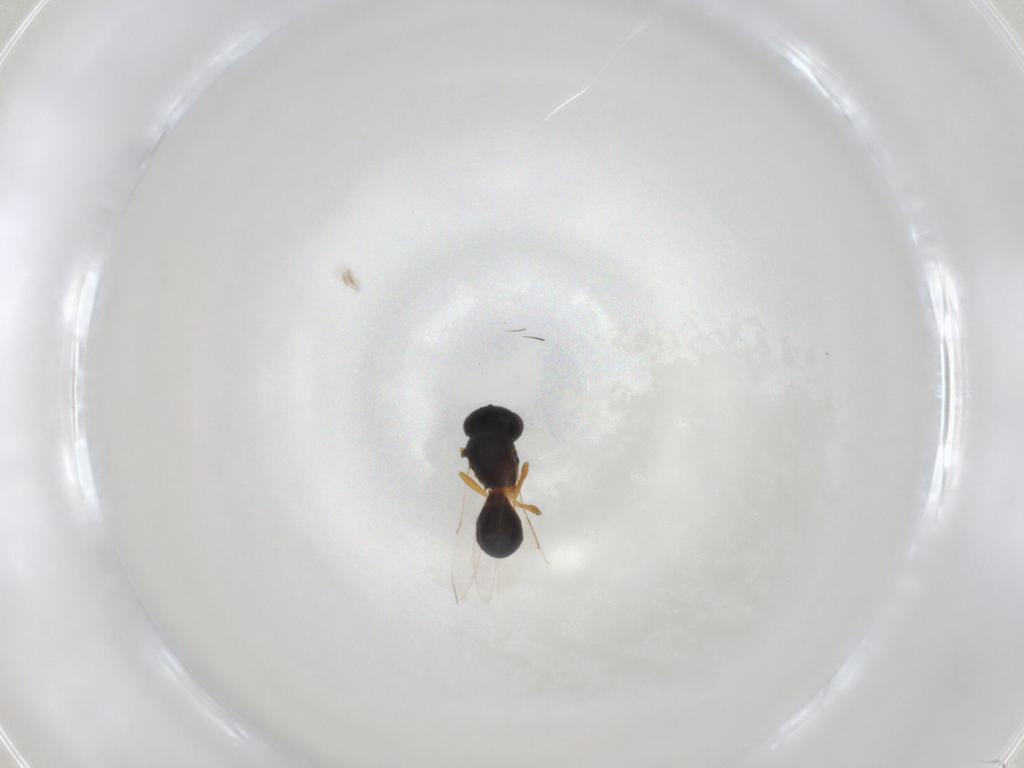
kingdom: Animalia
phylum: Arthropoda
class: Insecta
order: Hymenoptera
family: Scelionidae
